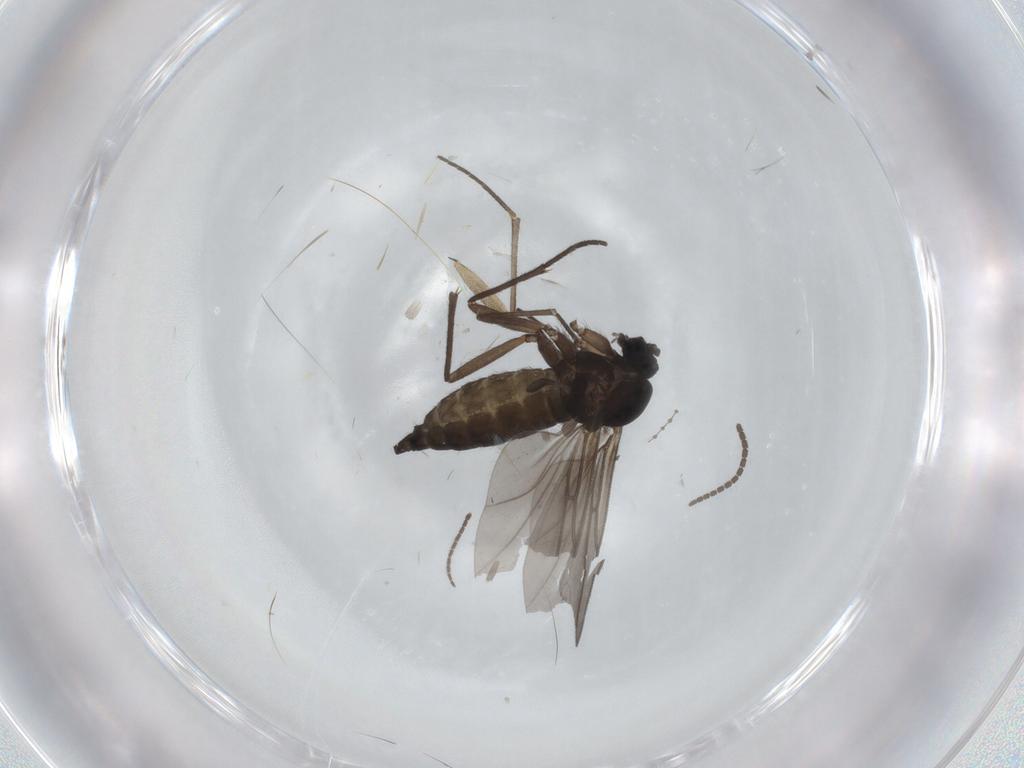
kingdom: Animalia
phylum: Arthropoda
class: Insecta
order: Diptera
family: Sciaridae
